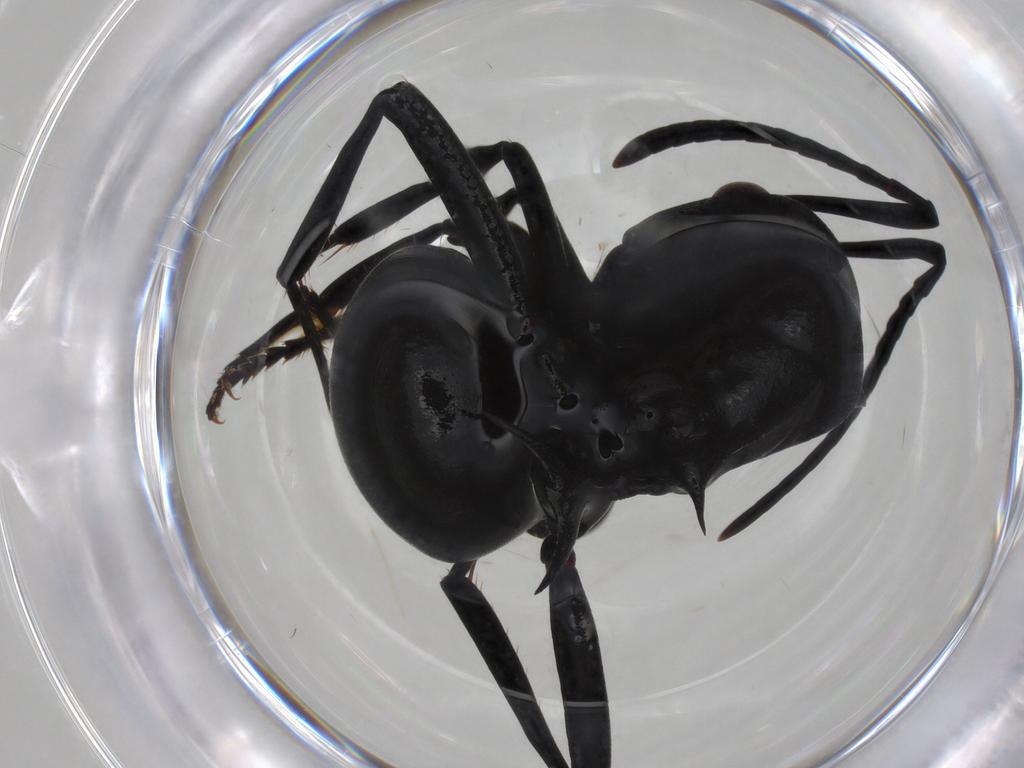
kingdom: Animalia
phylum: Arthropoda
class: Insecta
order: Hymenoptera
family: Formicidae
